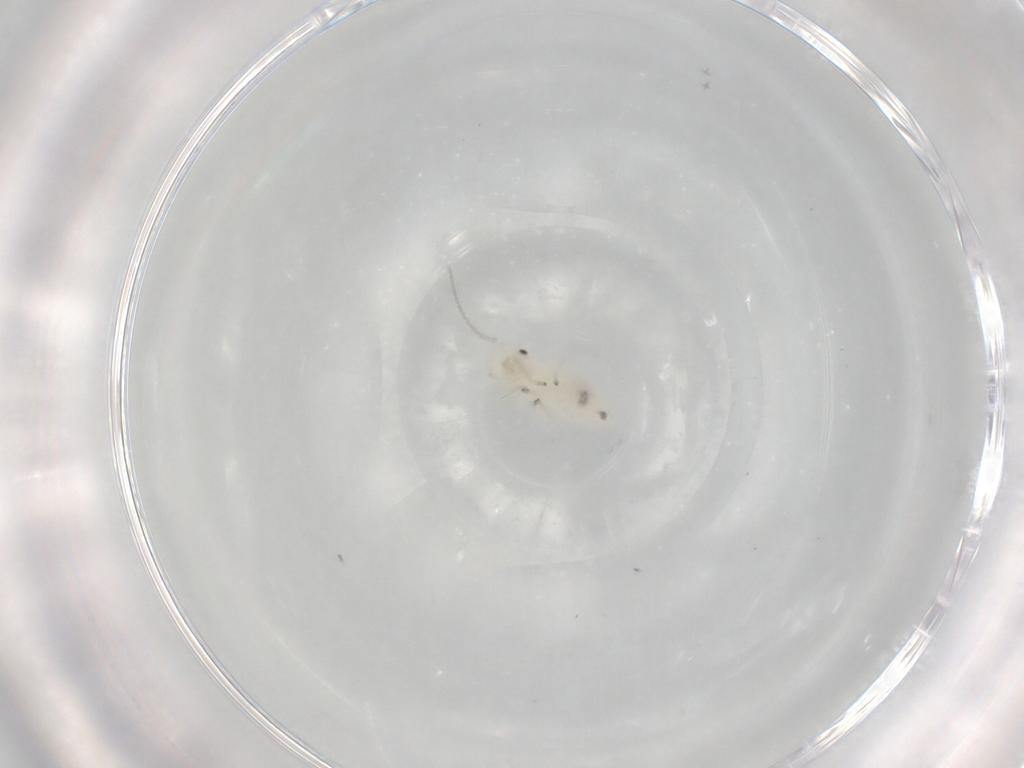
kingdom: Animalia
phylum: Arthropoda
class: Insecta
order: Psocodea
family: Caeciliusidae
